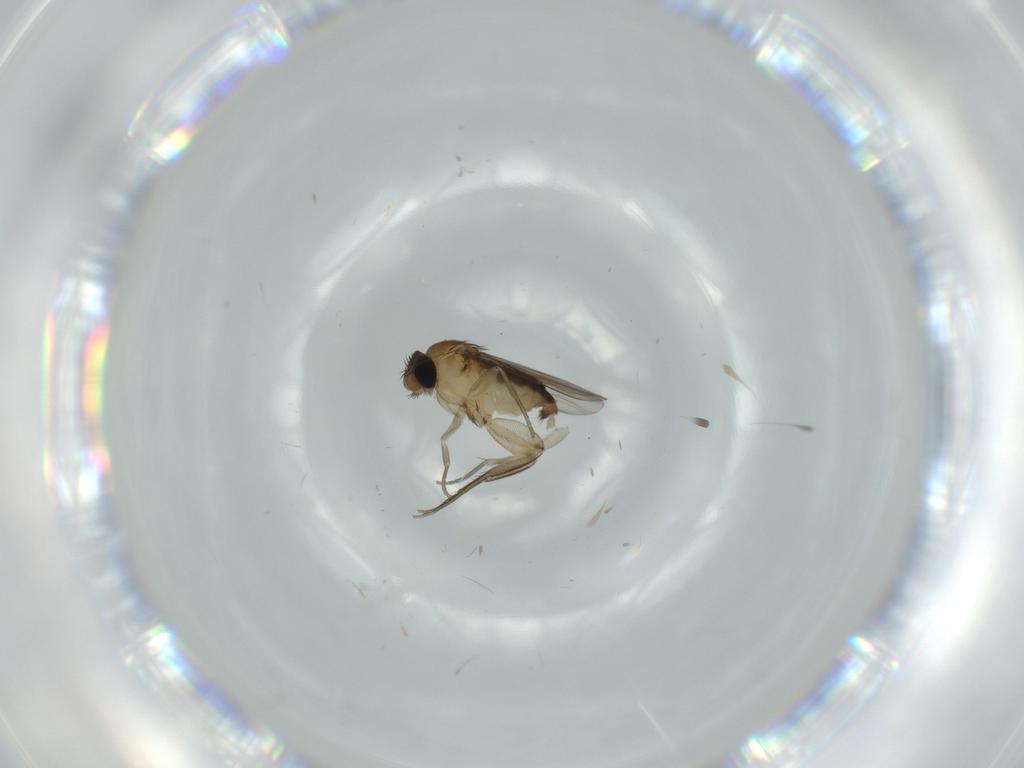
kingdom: Animalia
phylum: Arthropoda
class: Insecta
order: Diptera
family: Phoridae
